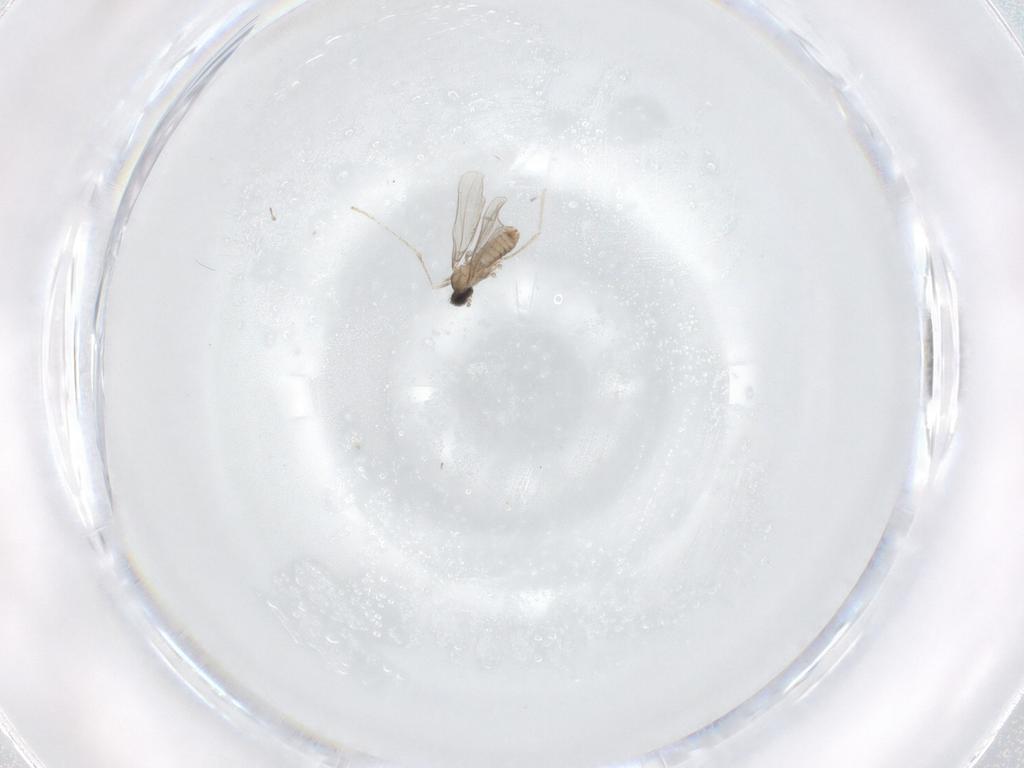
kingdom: Animalia
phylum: Arthropoda
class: Insecta
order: Diptera
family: Cecidomyiidae
